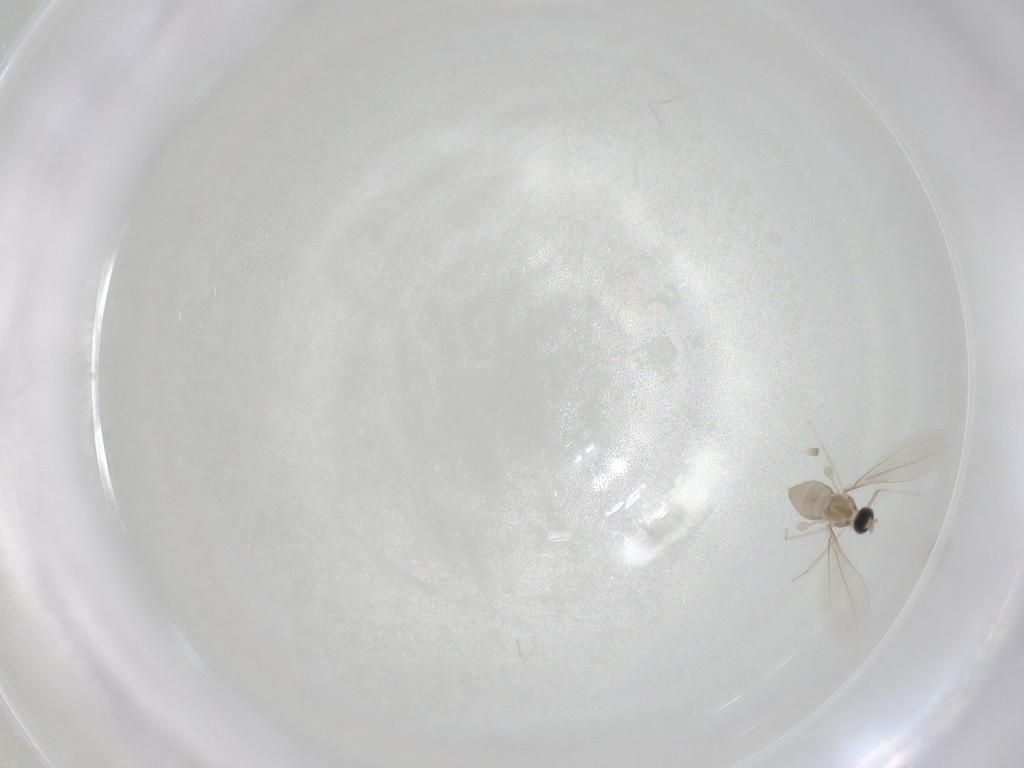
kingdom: Animalia
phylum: Arthropoda
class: Insecta
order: Diptera
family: Cecidomyiidae
